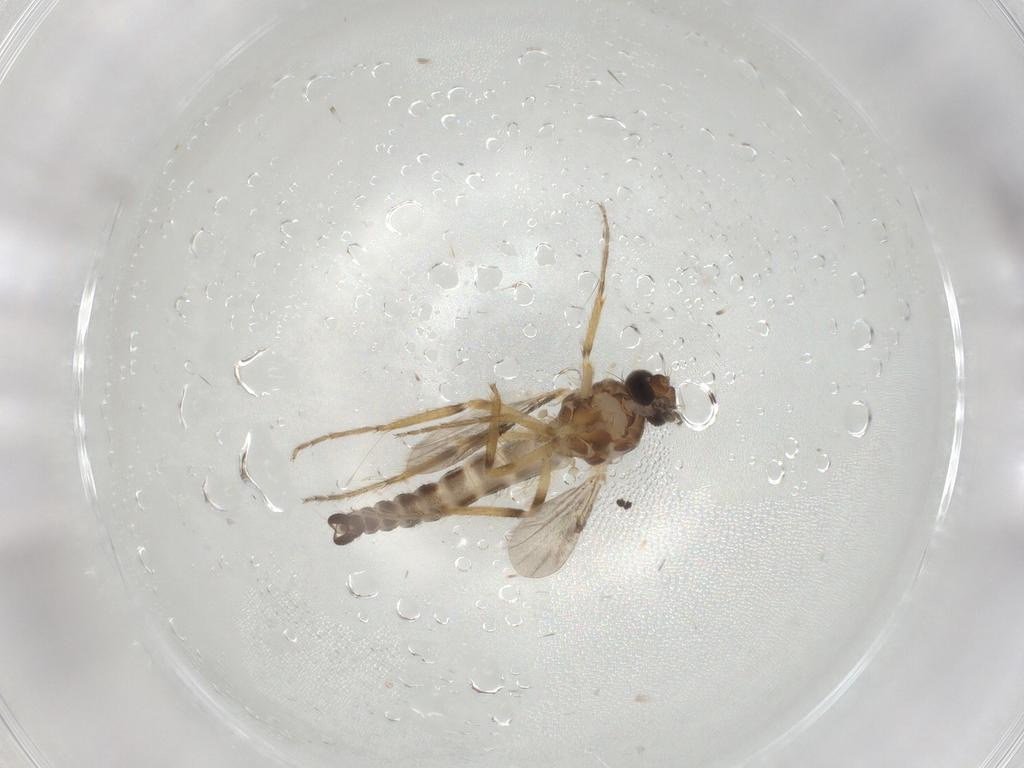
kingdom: Animalia
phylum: Arthropoda
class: Insecta
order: Diptera
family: Ceratopogonidae
